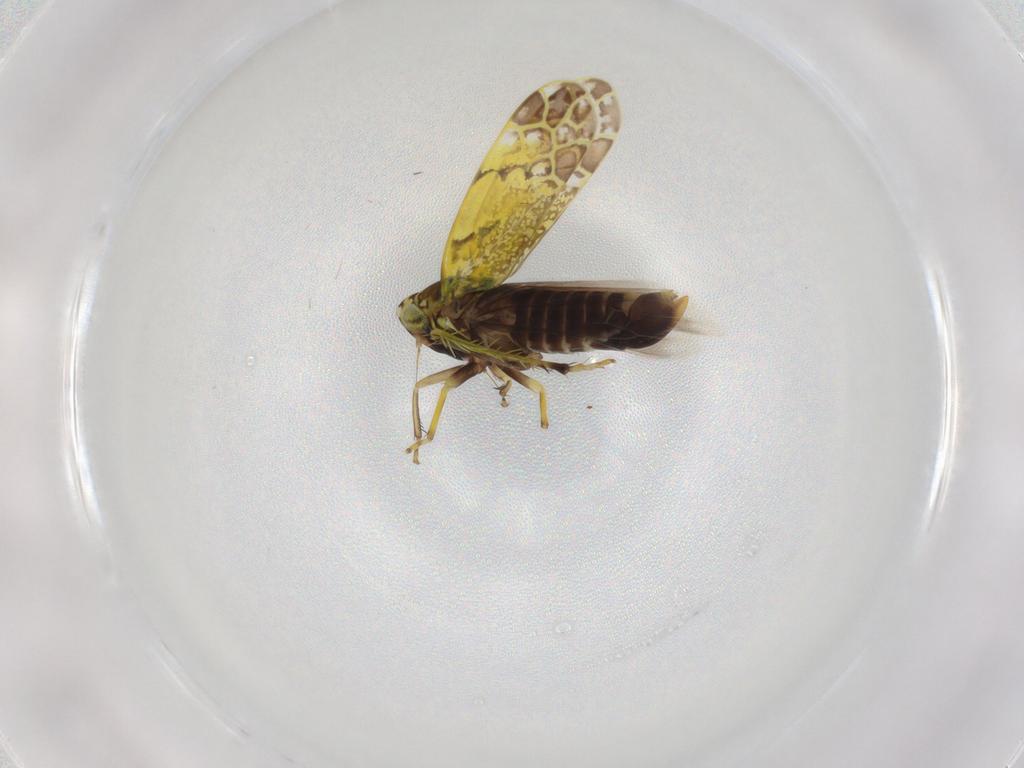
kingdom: Animalia
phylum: Arthropoda
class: Insecta
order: Hemiptera
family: Cicadellidae
